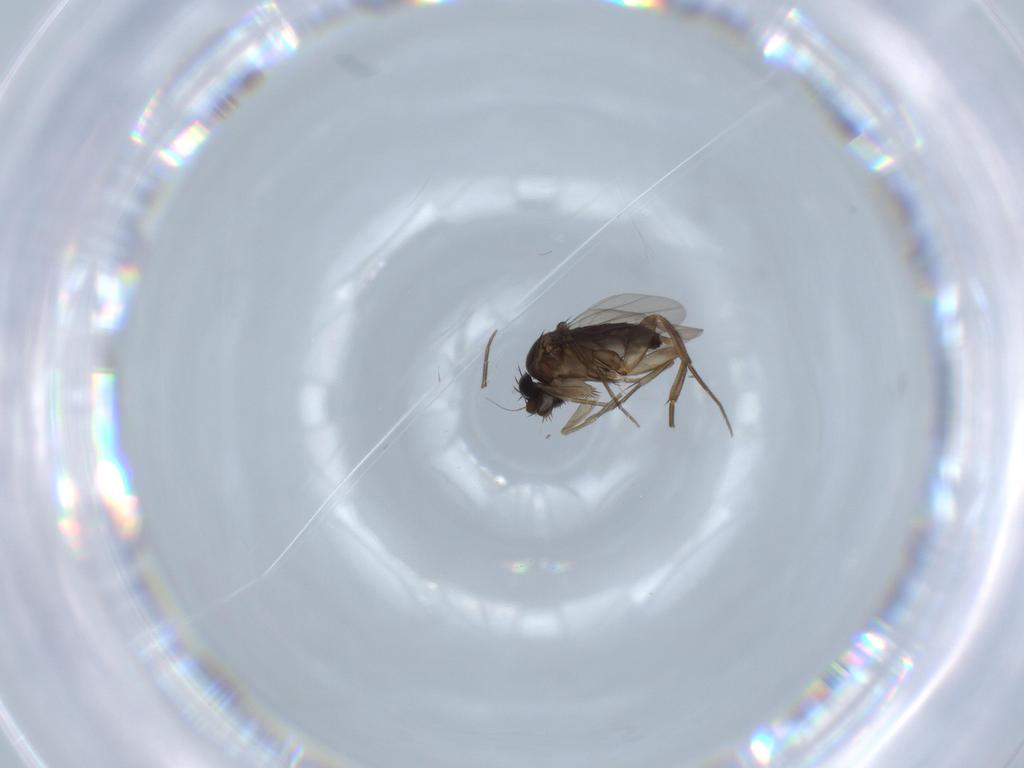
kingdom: Animalia
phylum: Arthropoda
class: Insecta
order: Diptera
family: Phoridae
